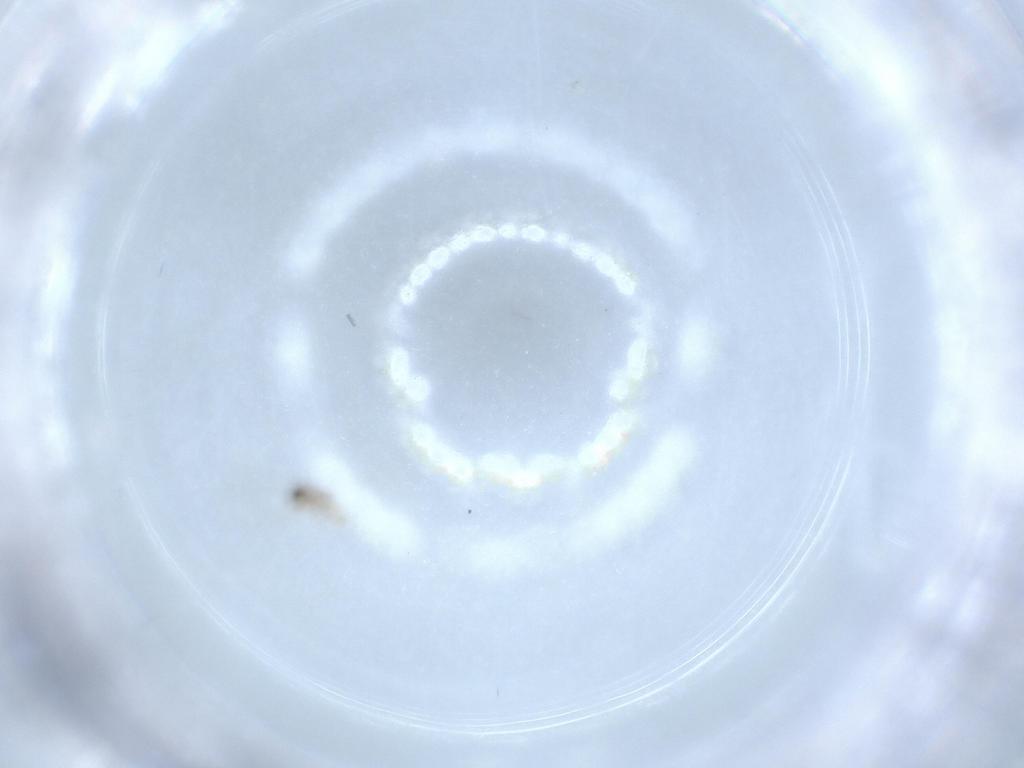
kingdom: Animalia
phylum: Arthropoda
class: Insecta
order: Diptera
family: Cecidomyiidae
